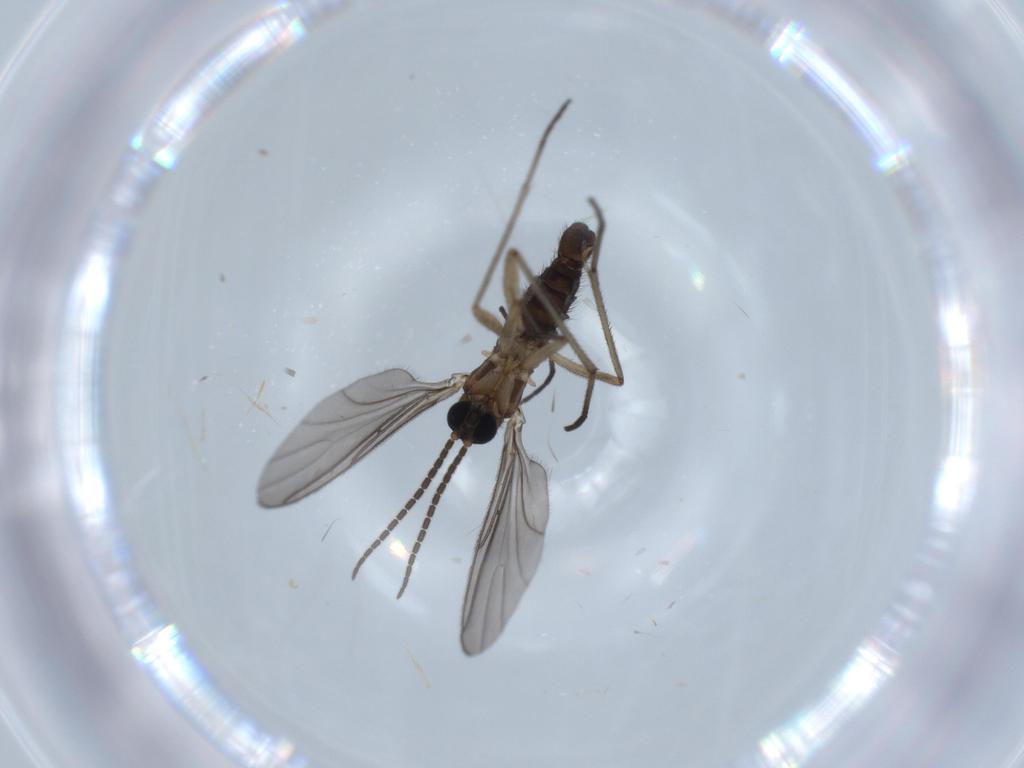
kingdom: Animalia
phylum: Arthropoda
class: Insecta
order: Diptera
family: Sciaridae
